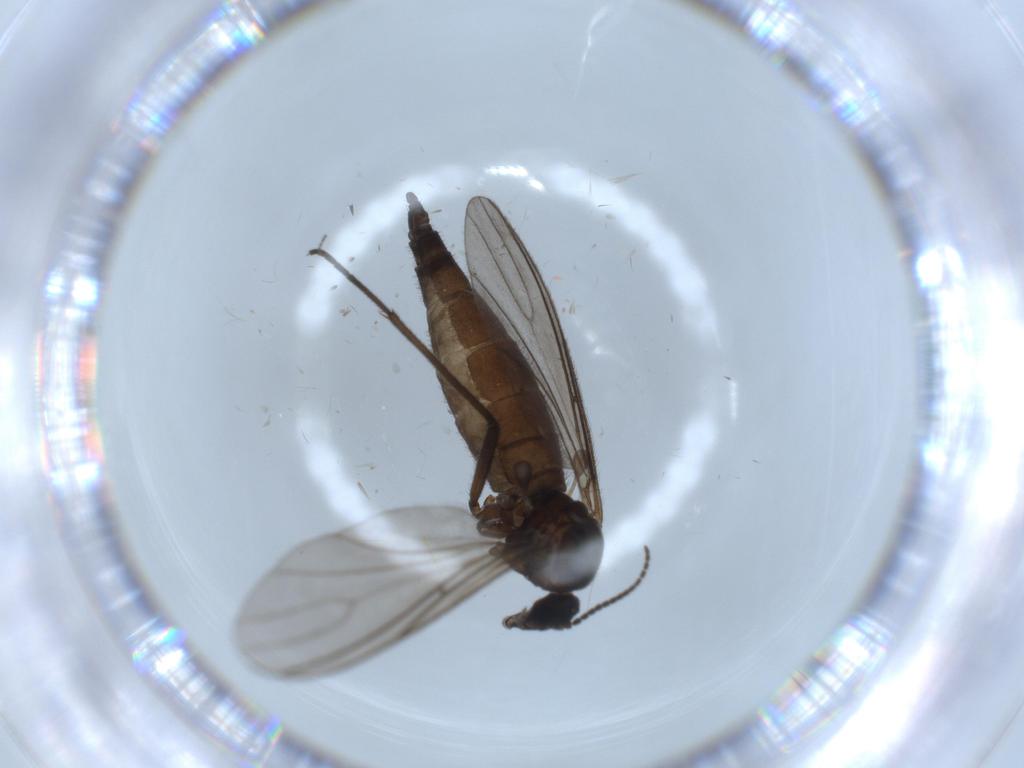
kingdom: Animalia
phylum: Arthropoda
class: Insecta
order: Diptera
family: Sciaridae
